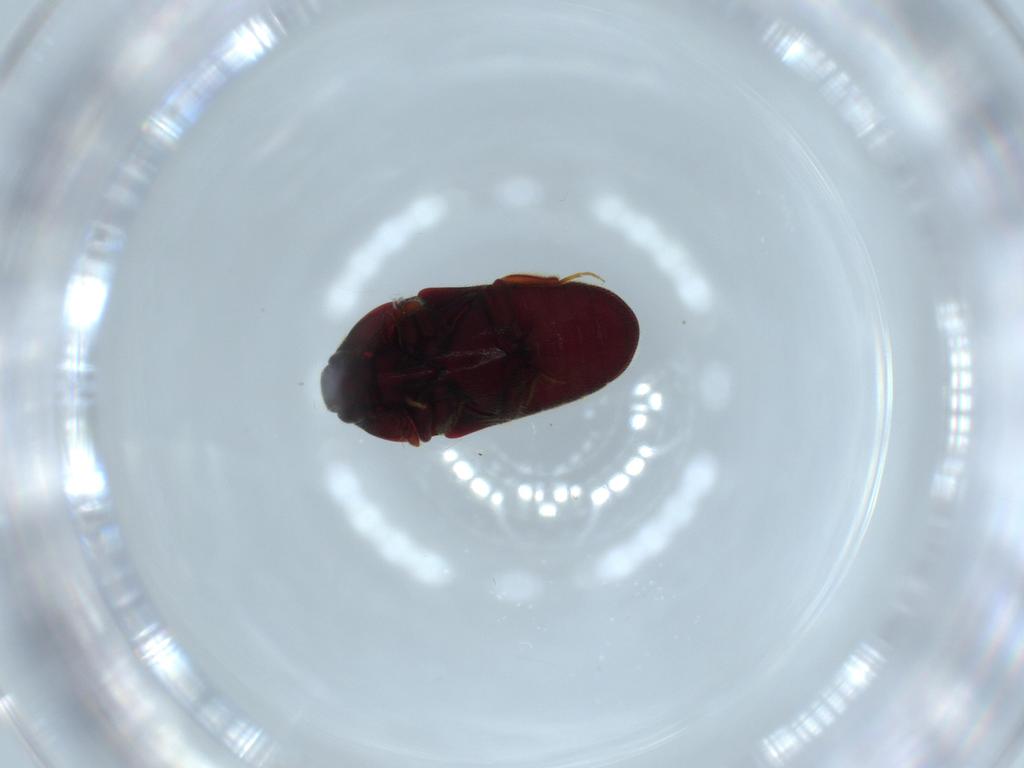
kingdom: Animalia
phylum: Arthropoda
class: Insecta
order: Coleoptera
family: Throscidae
